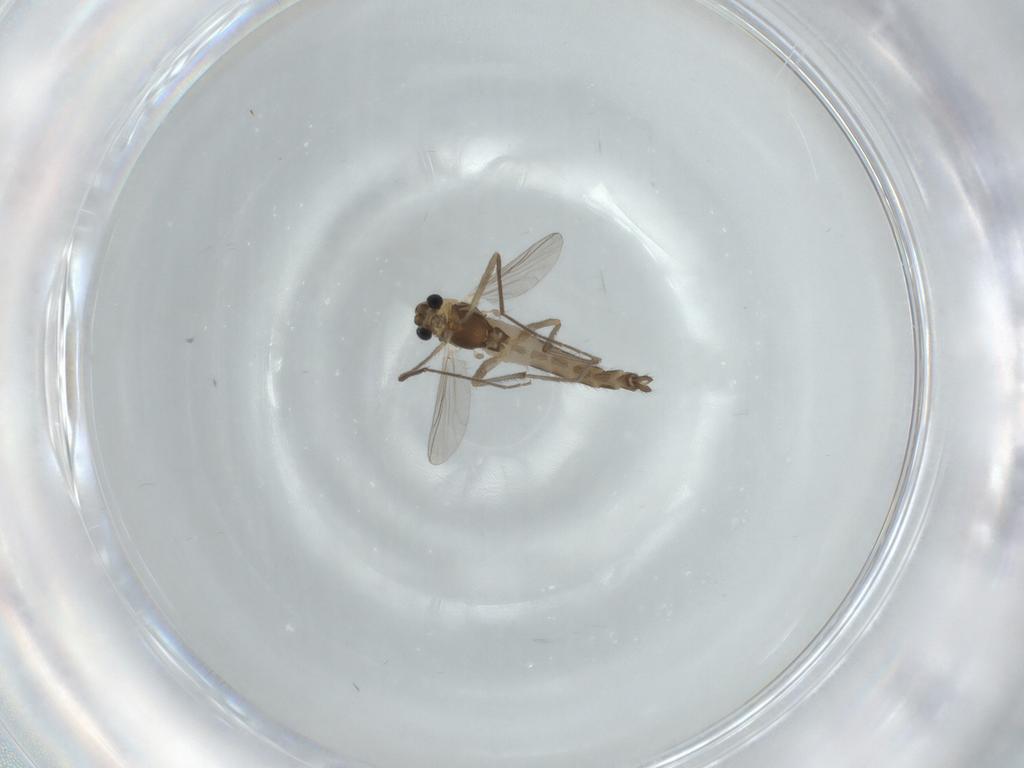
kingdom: Animalia
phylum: Arthropoda
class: Insecta
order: Diptera
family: Chironomidae
